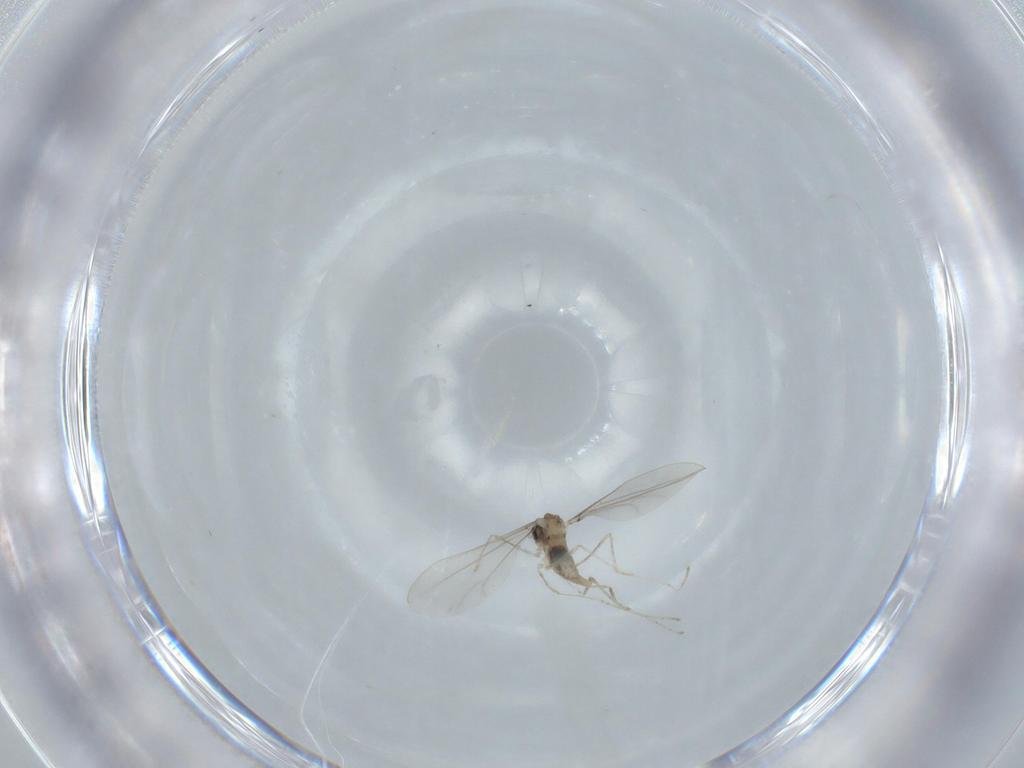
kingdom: Animalia
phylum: Arthropoda
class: Insecta
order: Diptera
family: Cecidomyiidae
